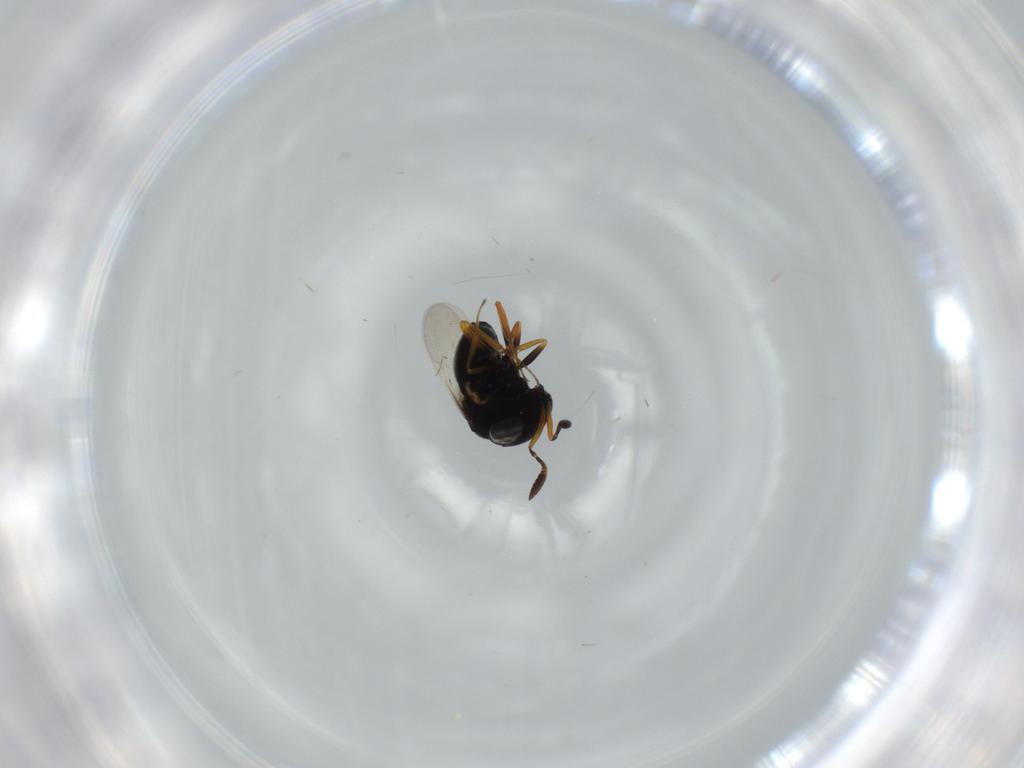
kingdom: Animalia
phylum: Arthropoda
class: Insecta
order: Hymenoptera
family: Scelionidae
